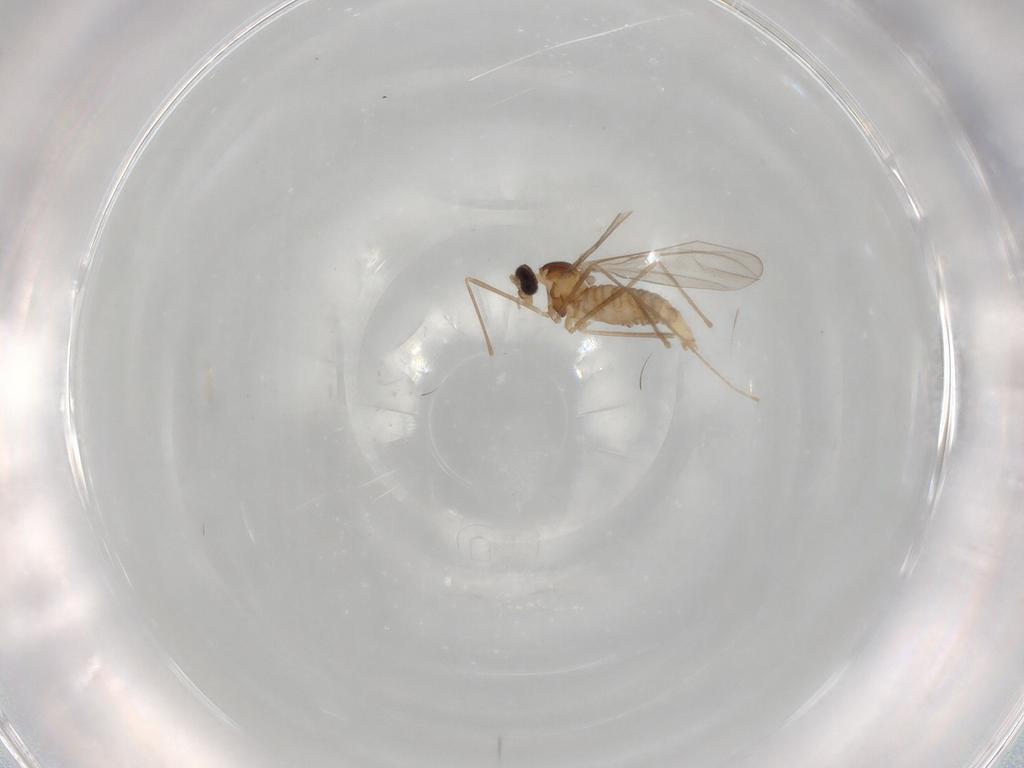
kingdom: Animalia
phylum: Arthropoda
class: Insecta
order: Diptera
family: Cecidomyiidae
